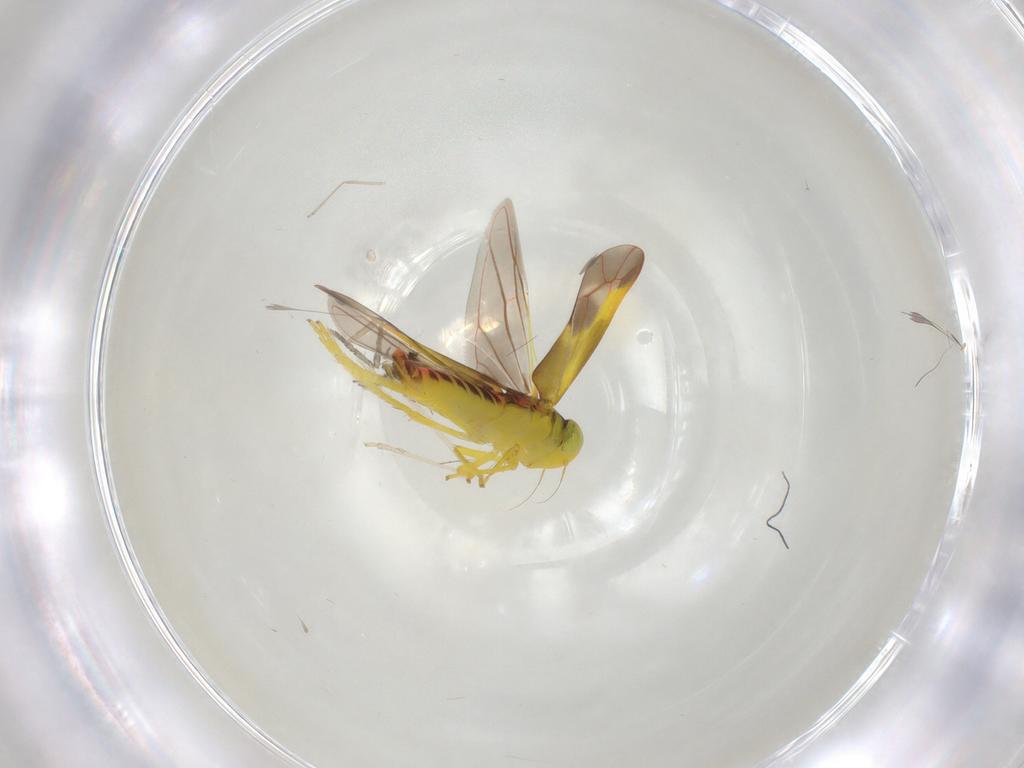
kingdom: Animalia
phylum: Arthropoda
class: Insecta
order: Hemiptera
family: Cicadellidae
